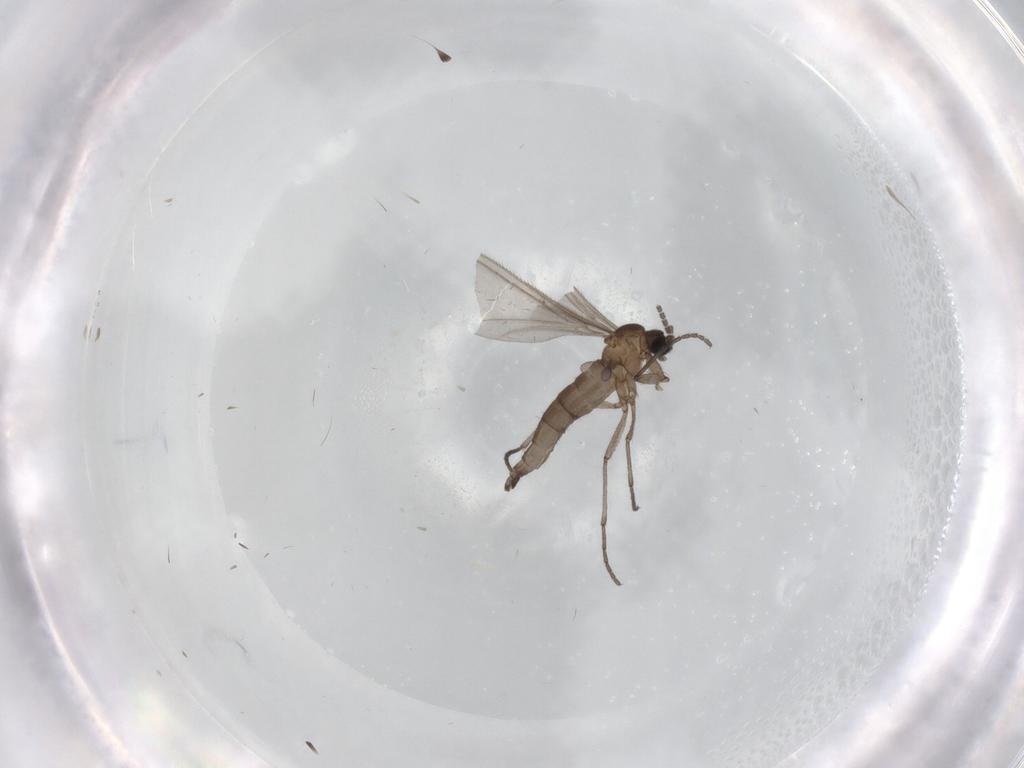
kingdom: Animalia
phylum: Arthropoda
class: Insecta
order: Diptera
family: Sciaridae
